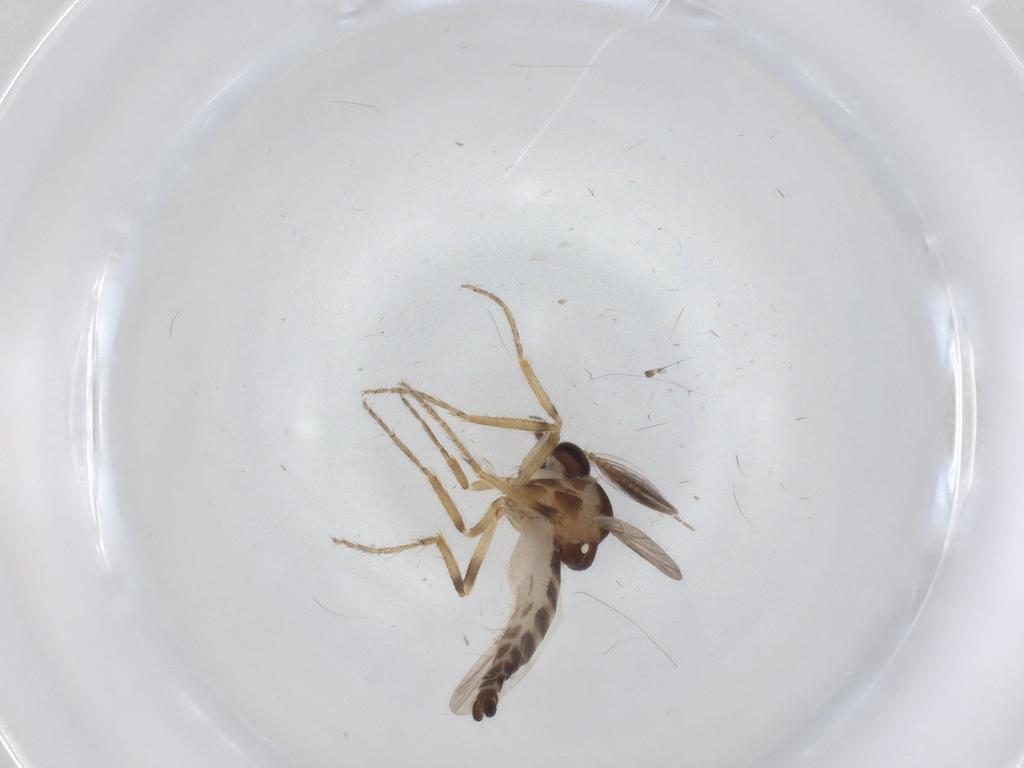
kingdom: Animalia
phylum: Arthropoda
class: Insecta
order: Diptera
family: Ceratopogonidae
